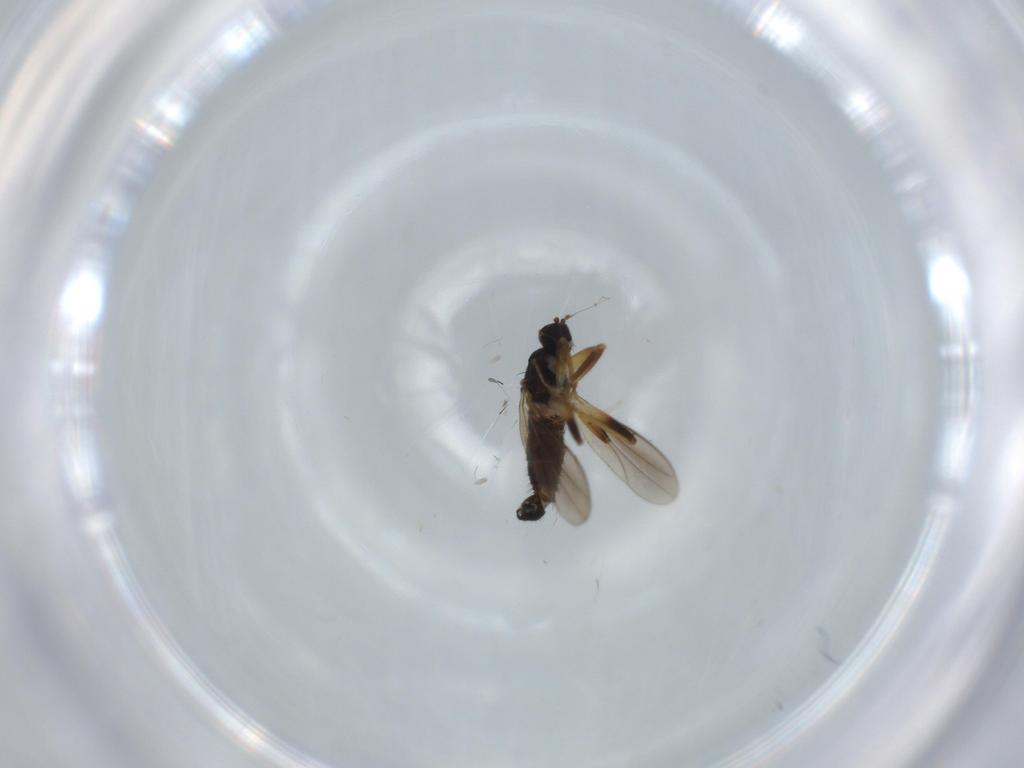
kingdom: Animalia
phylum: Arthropoda
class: Insecta
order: Diptera
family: Hybotidae
